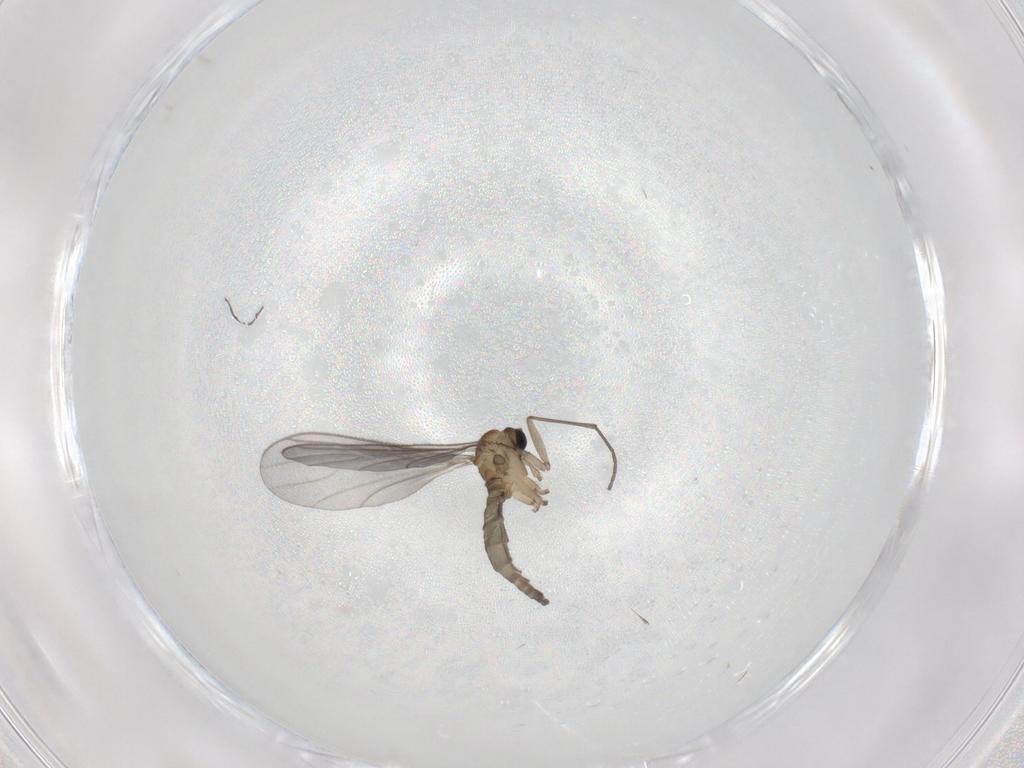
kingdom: Animalia
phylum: Arthropoda
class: Insecta
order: Diptera
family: Sciaridae
